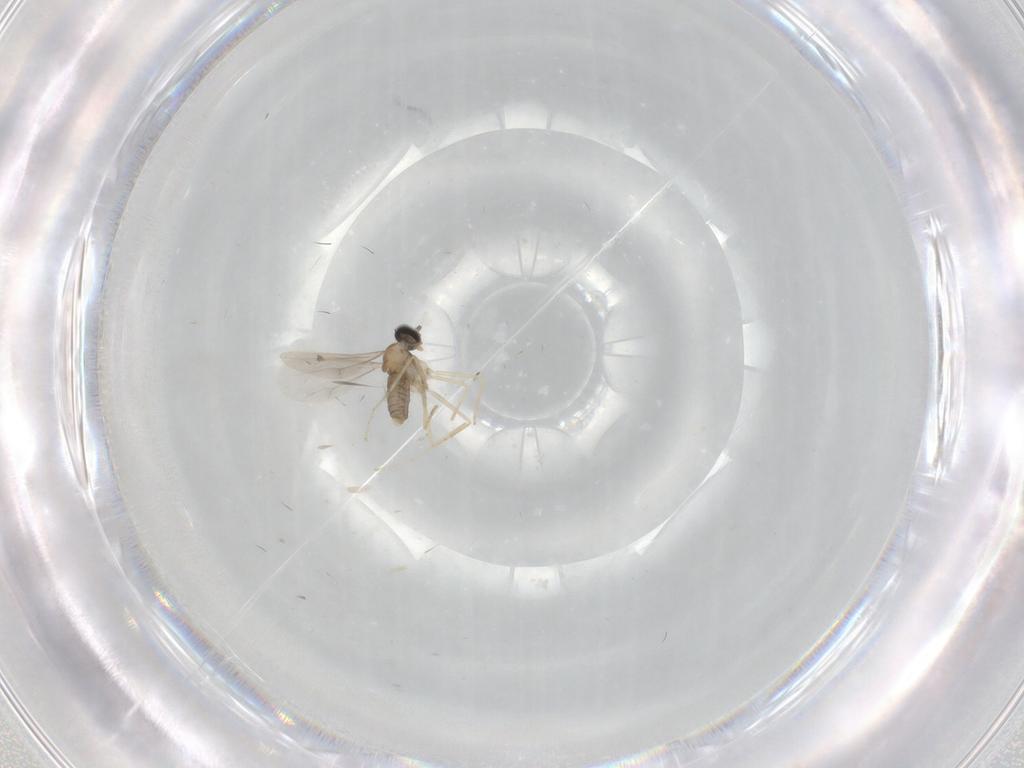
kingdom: Animalia
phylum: Arthropoda
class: Insecta
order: Diptera
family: Cecidomyiidae
